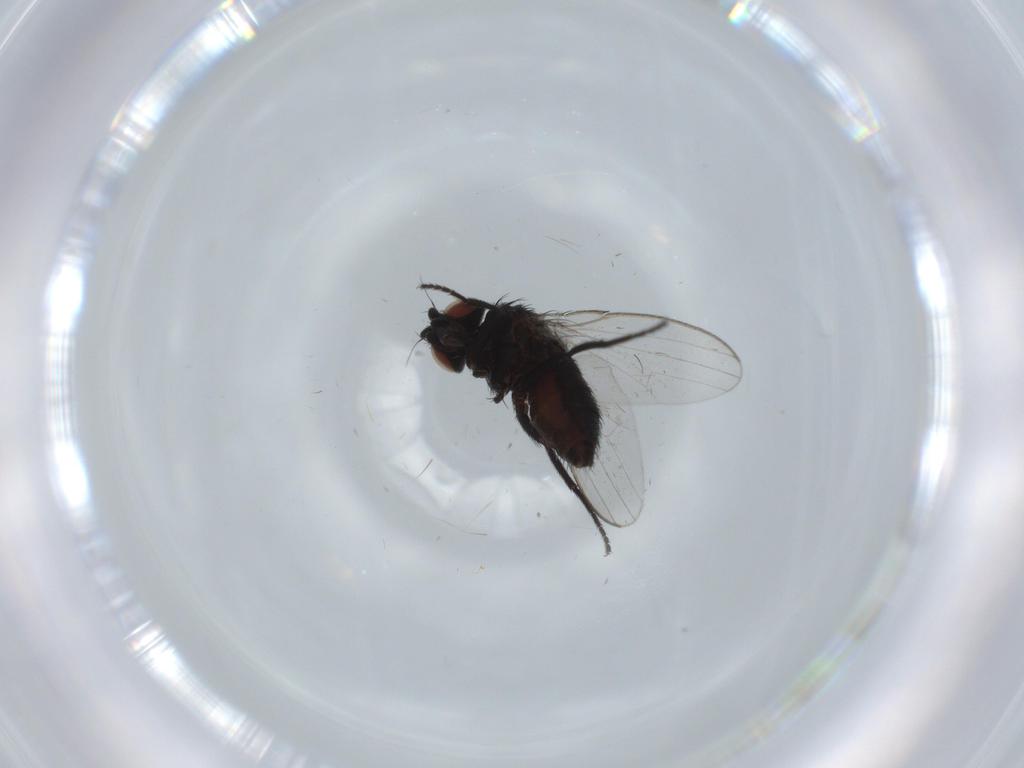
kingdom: Animalia
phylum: Arthropoda
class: Insecta
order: Diptera
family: Milichiidae
